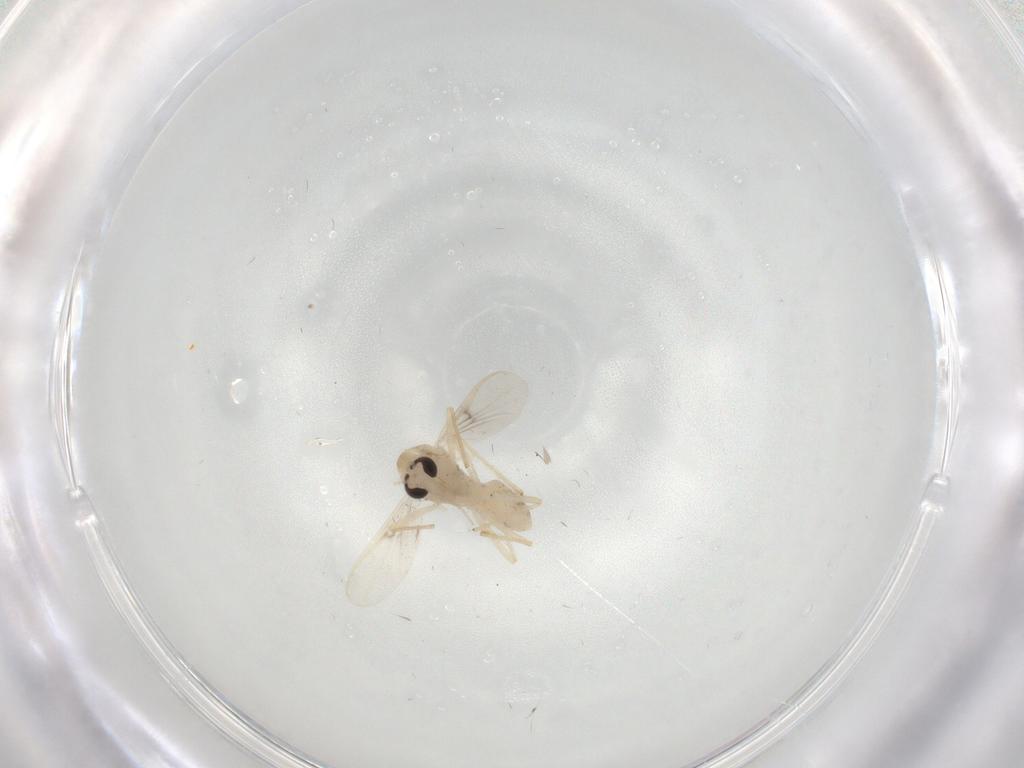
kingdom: Animalia
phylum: Arthropoda
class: Insecta
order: Diptera
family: Chironomidae
